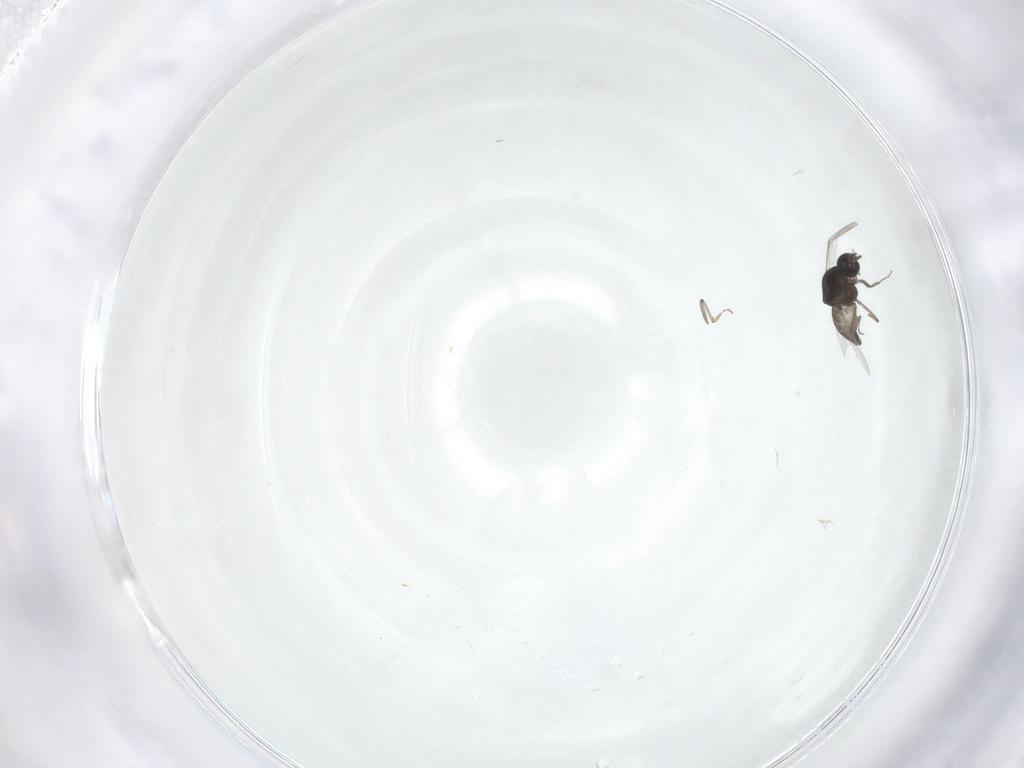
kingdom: Animalia
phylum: Arthropoda
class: Insecta
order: Diptera
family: Ceratopogonidae
